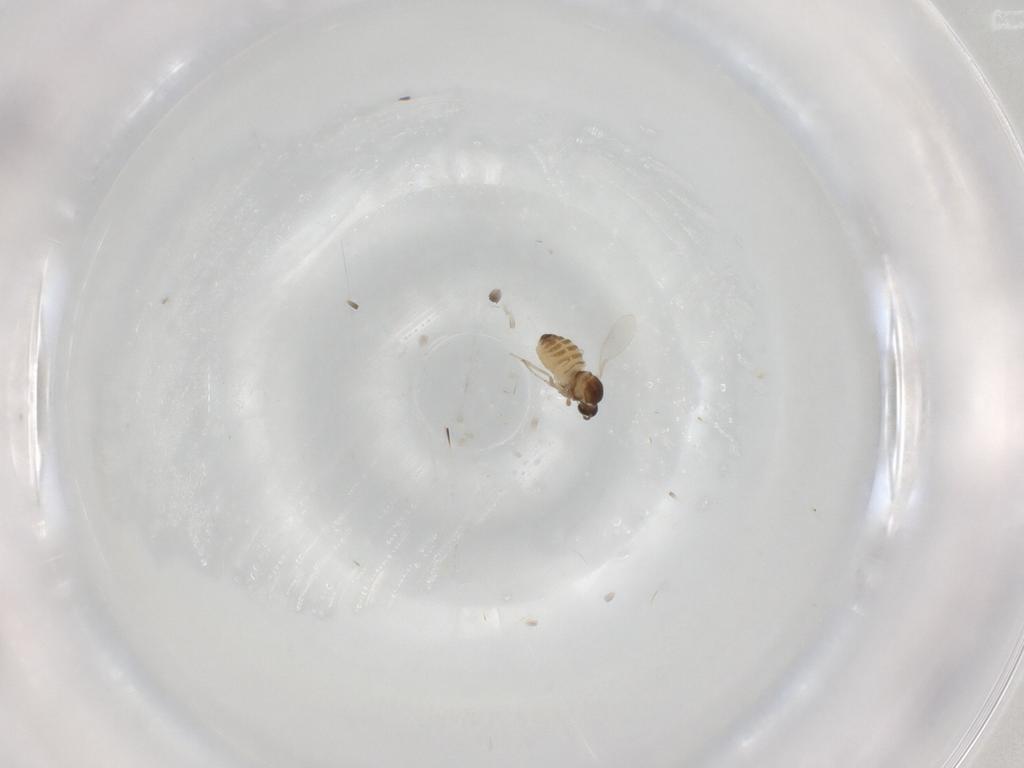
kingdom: Animalia
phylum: Arthropoda
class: Insecta
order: Diptera
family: Cecidomyiidae
